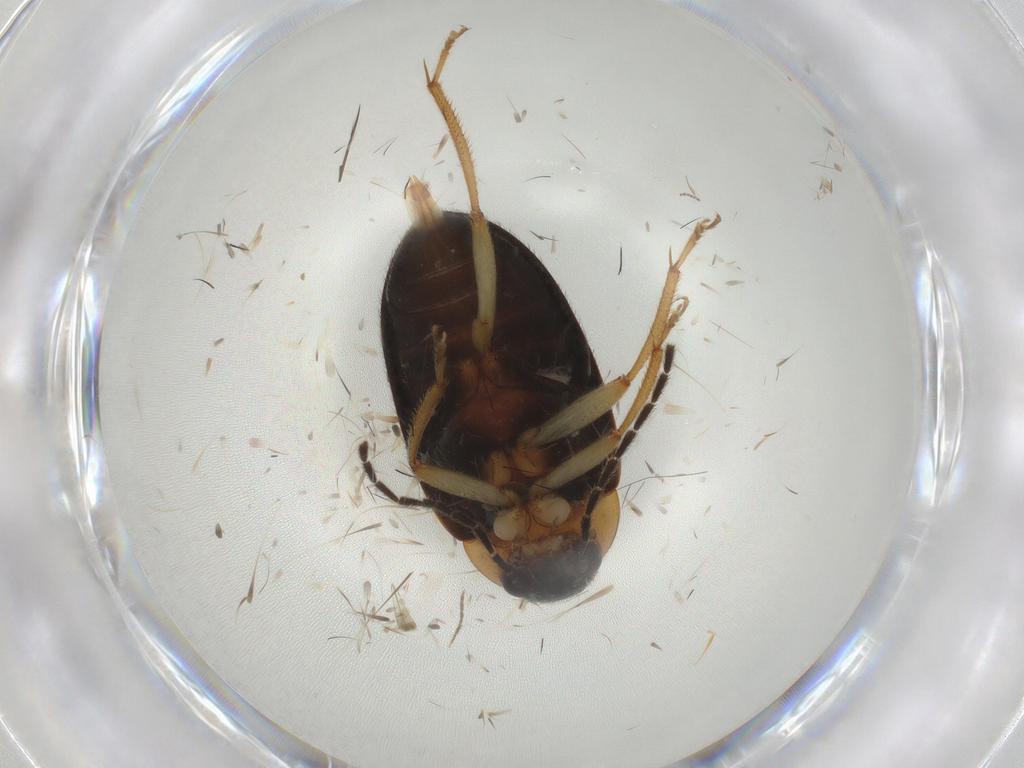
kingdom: Animalia
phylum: Arthropoda
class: Insecta
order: Coleoptera
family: Ptilodactylidae
